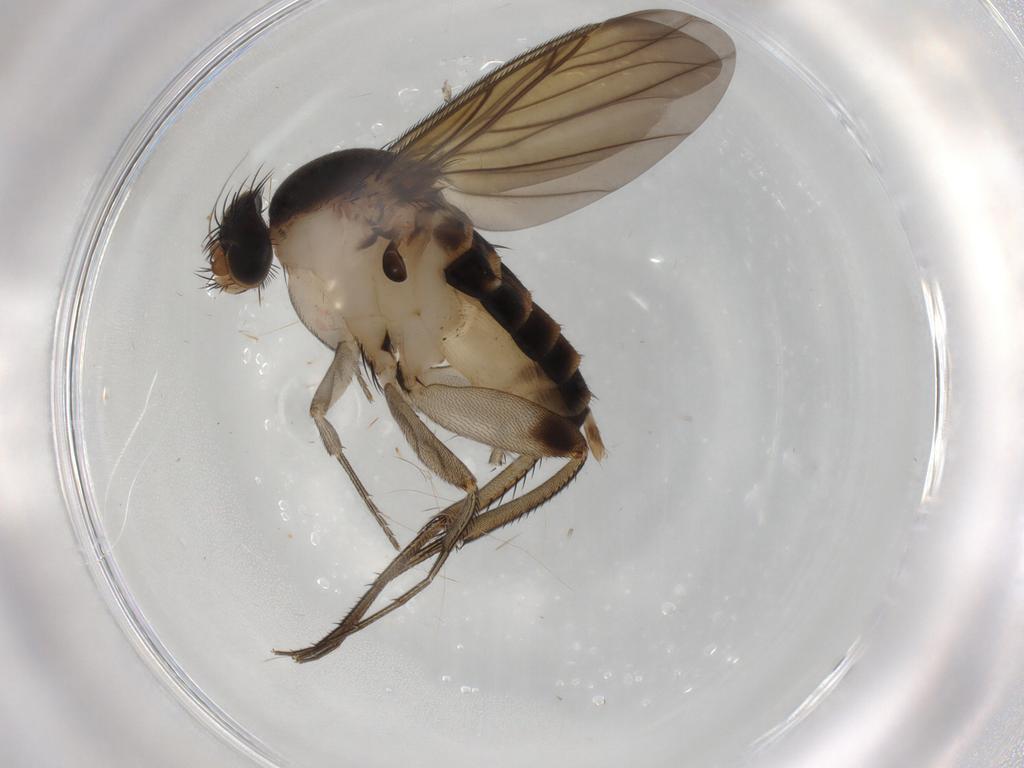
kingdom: Animalia
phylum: Arthropoda
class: Insecta
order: Diptera
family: Phoridae
